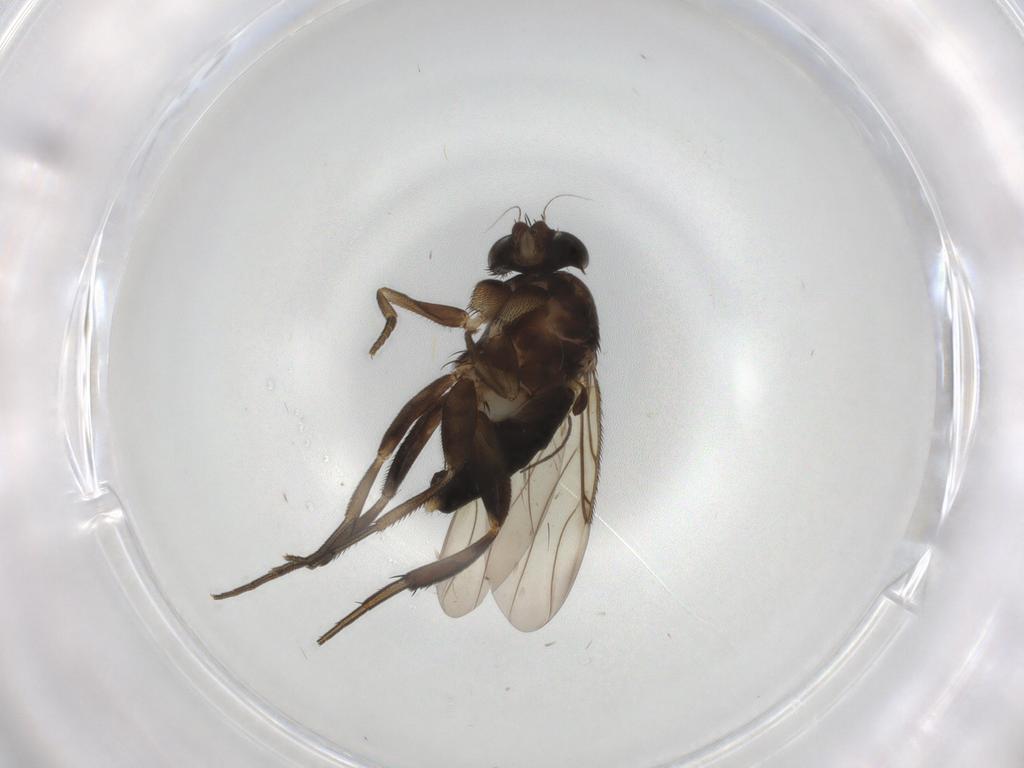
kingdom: Animalia
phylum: Arthropoda
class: Insecta
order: Diptera
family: Phoridae
